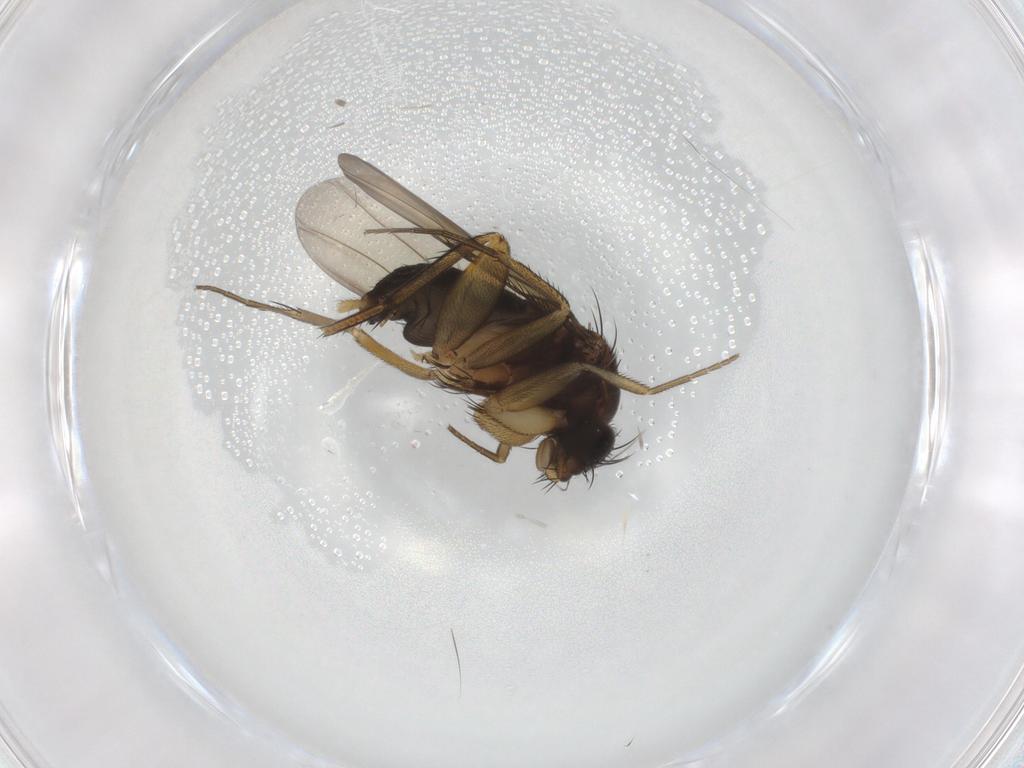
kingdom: Animalia
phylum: Arthropoda
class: Insecta
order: Diptera
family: Phoridae
